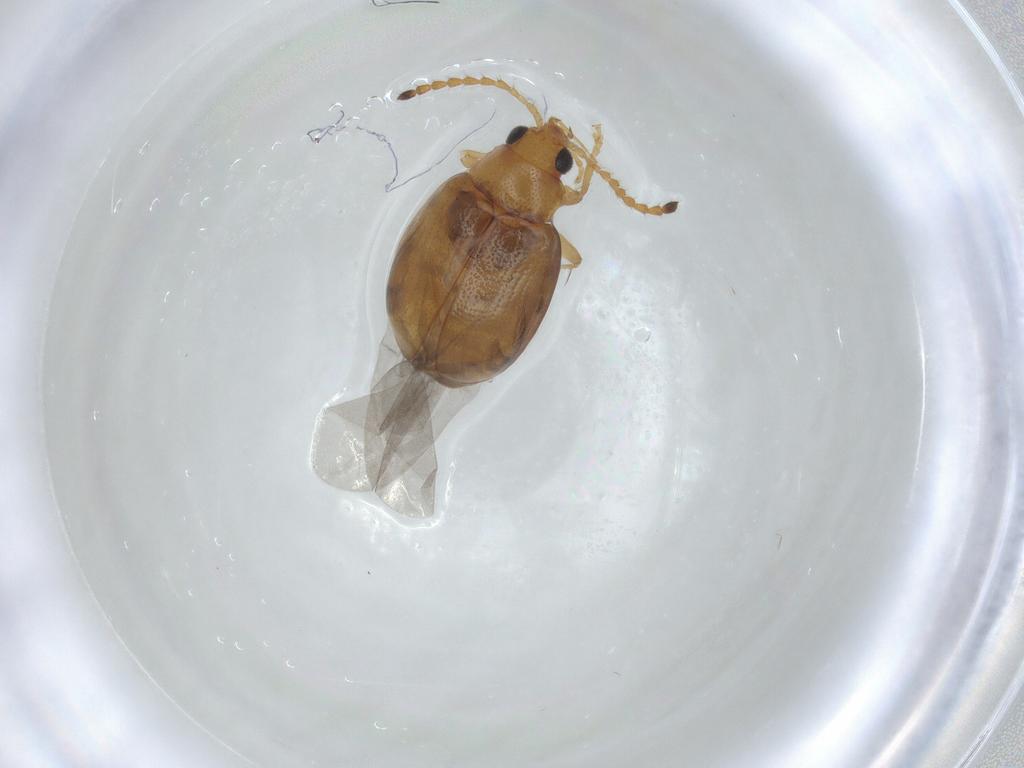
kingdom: Animalia
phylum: Arthropoda
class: Insecta
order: Coleoptera
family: Chrysomelidae
